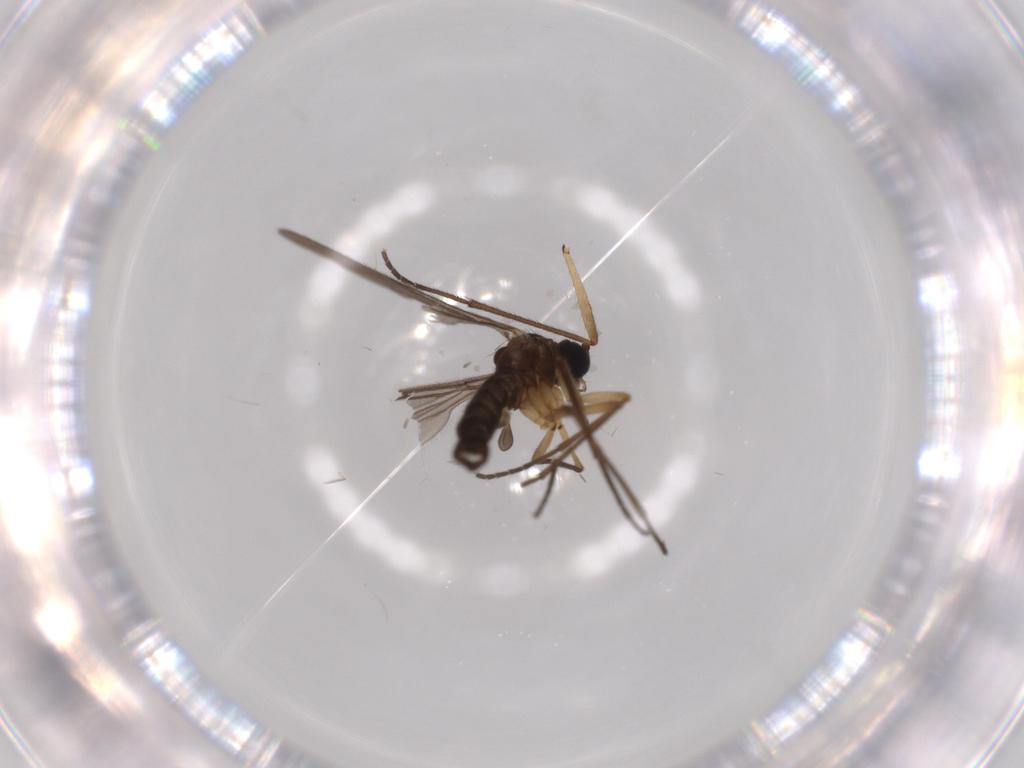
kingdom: Animalia
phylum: Arthropoda
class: Insecta
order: Diptera
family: Sciaridae
